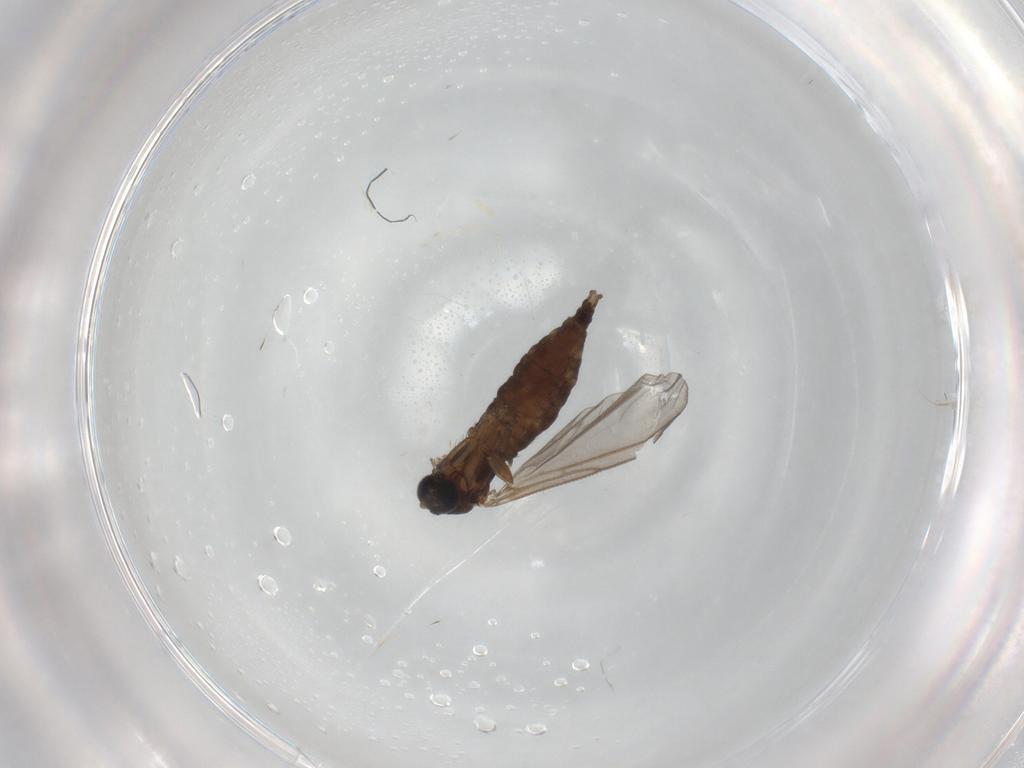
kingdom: Animalia
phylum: Arthropoda
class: Insecta
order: Diptera
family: Sciaridae
